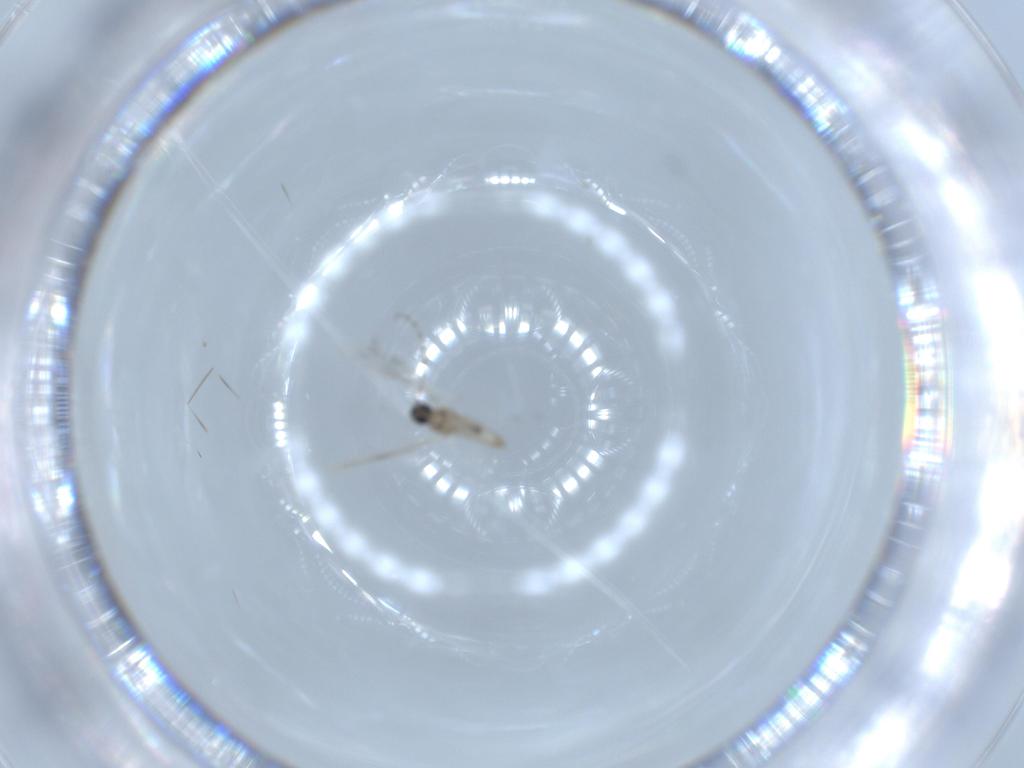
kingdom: Animalia
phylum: Arthropoda
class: Insecta
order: Diptera
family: Cecidomyiidae
